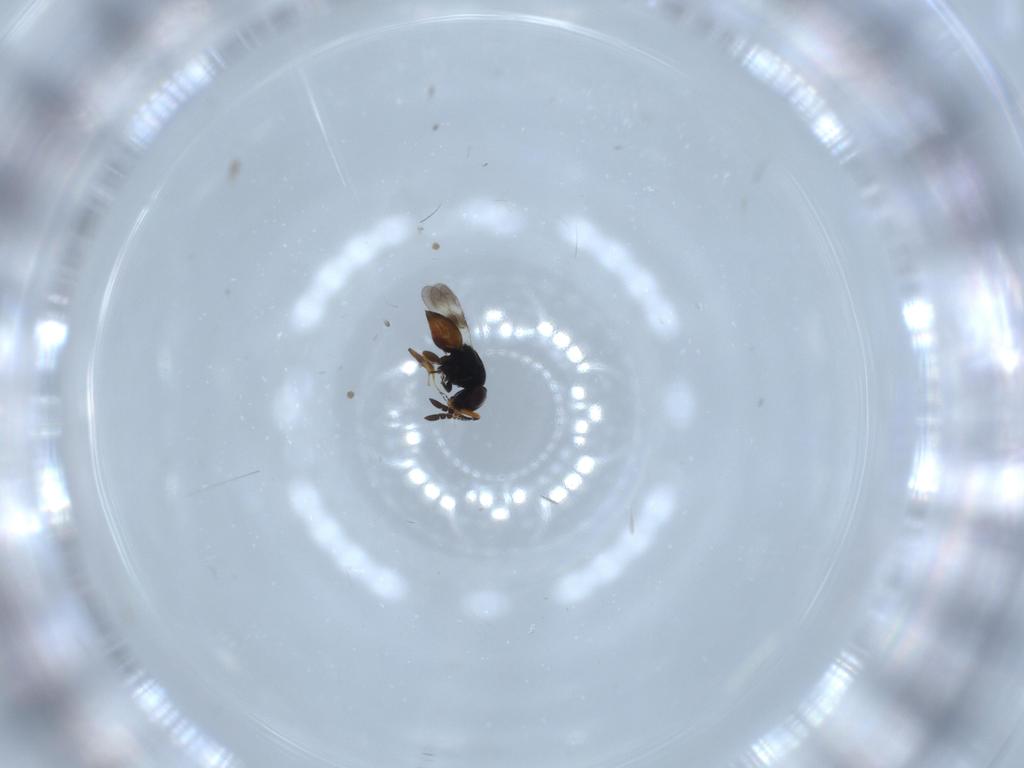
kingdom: Animalia
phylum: Arthropoda
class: Insecta
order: Hymenoptera
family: Ceraphronidae
